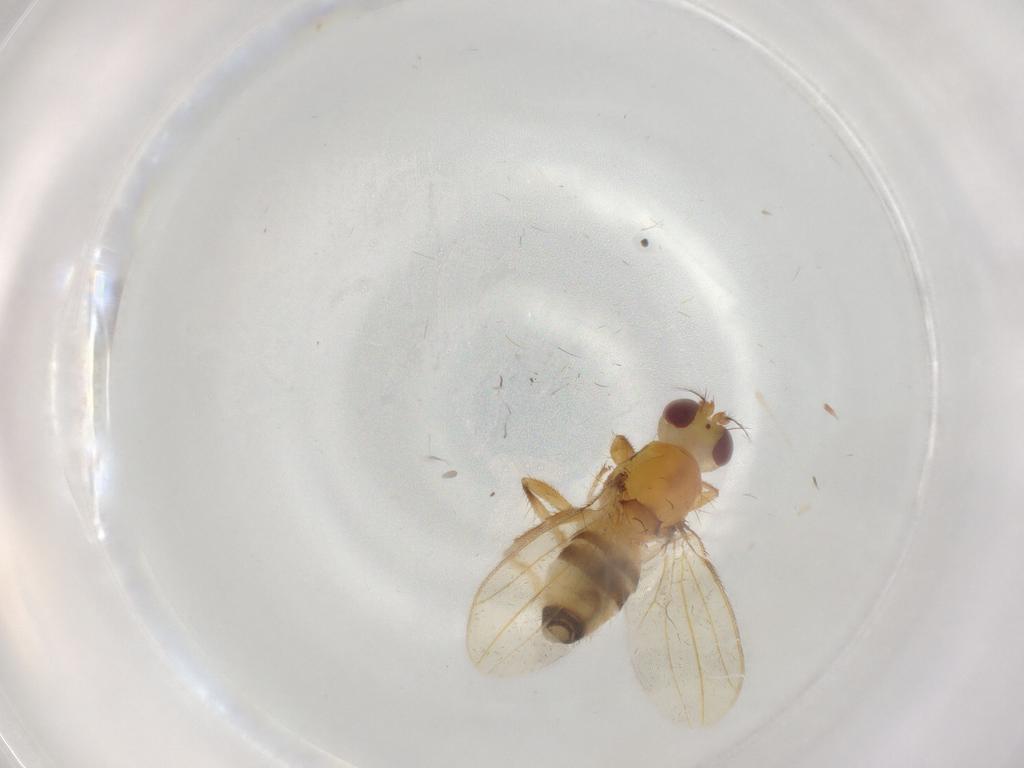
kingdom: Animalia
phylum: Arthropoda
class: Insecta
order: Diptera
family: Periscelididae
